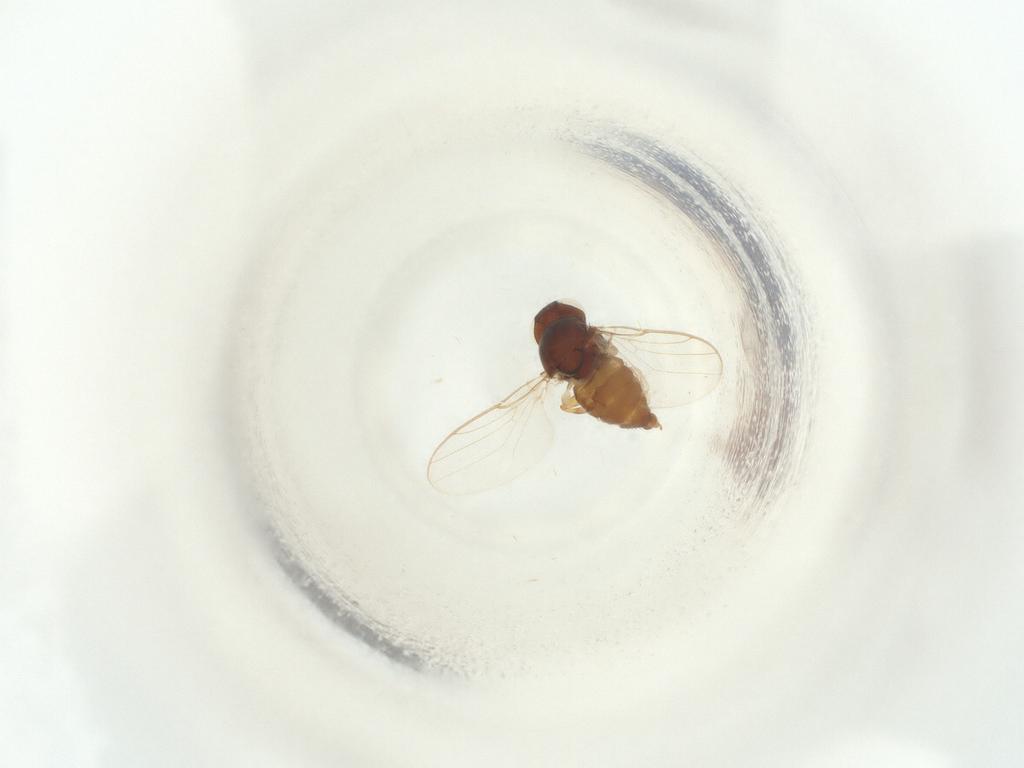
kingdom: Animalia
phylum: Arthropoda
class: Insecta
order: Diptera
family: Chloropidae
